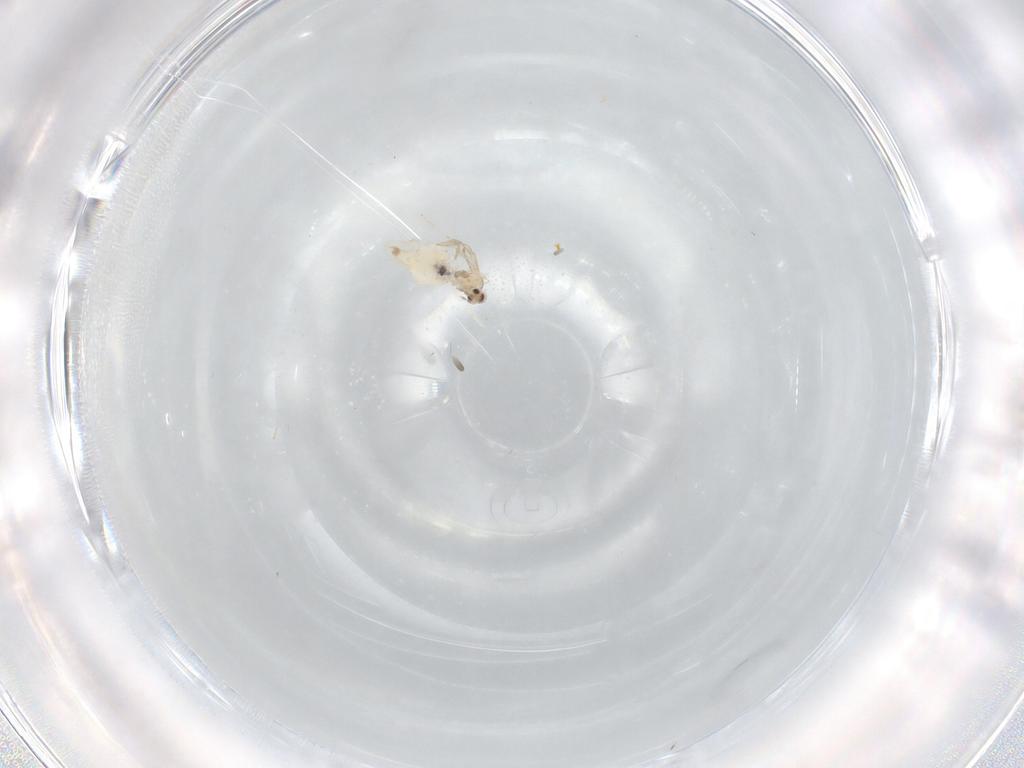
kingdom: Animalia
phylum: Arthropoda
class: Insecta
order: Diptera
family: Cecidomyiidae
